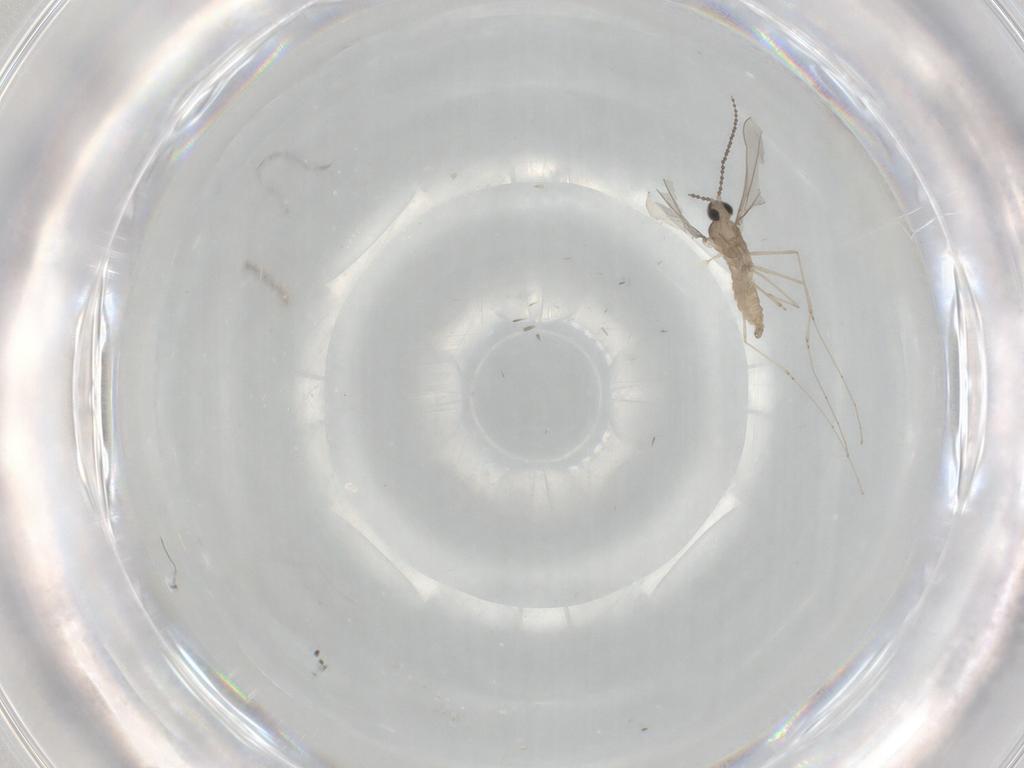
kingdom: Animalia
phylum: Arthropoda
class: Insecta
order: Diptera
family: Cecidomyiidae
